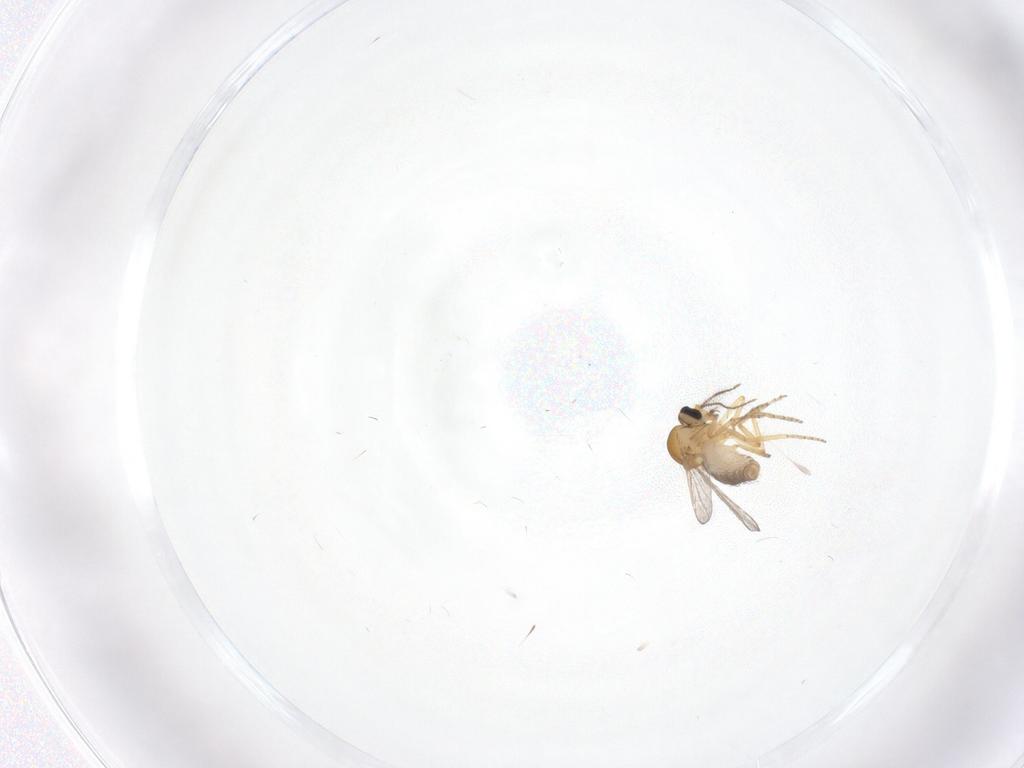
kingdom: Animalia
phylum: Arthropoda
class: Insecta
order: Diptera
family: Ceratopogonidae
